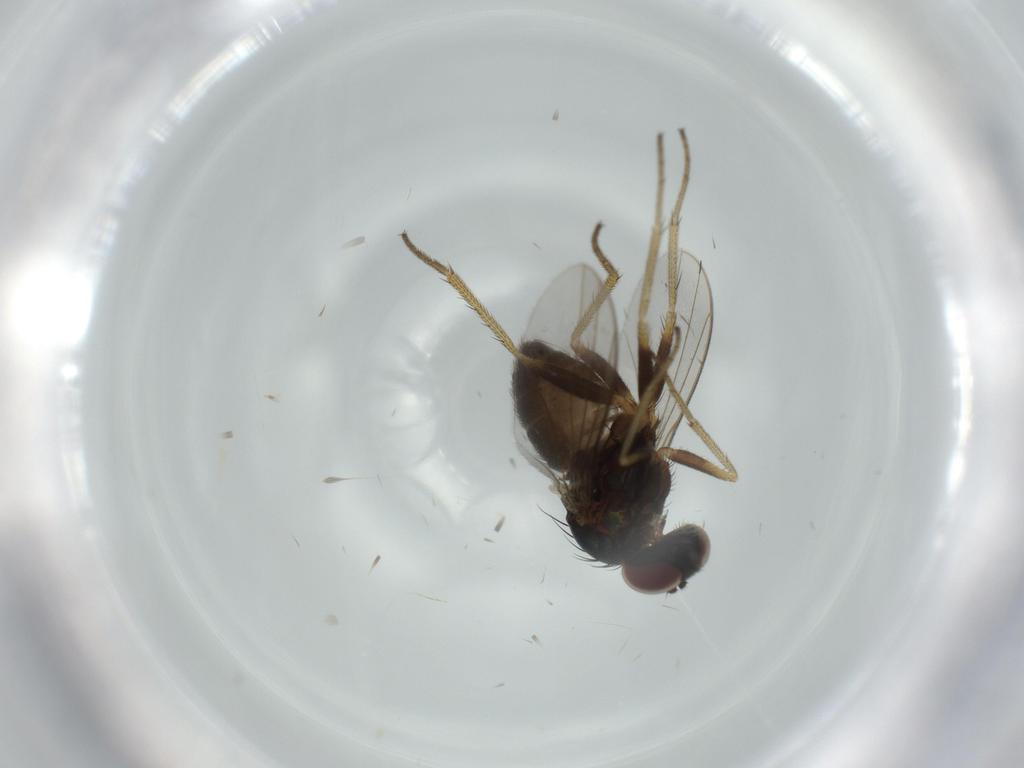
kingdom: Animalia
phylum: Arthropoda
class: Insecta
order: Diptera
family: Dolichopodidae
